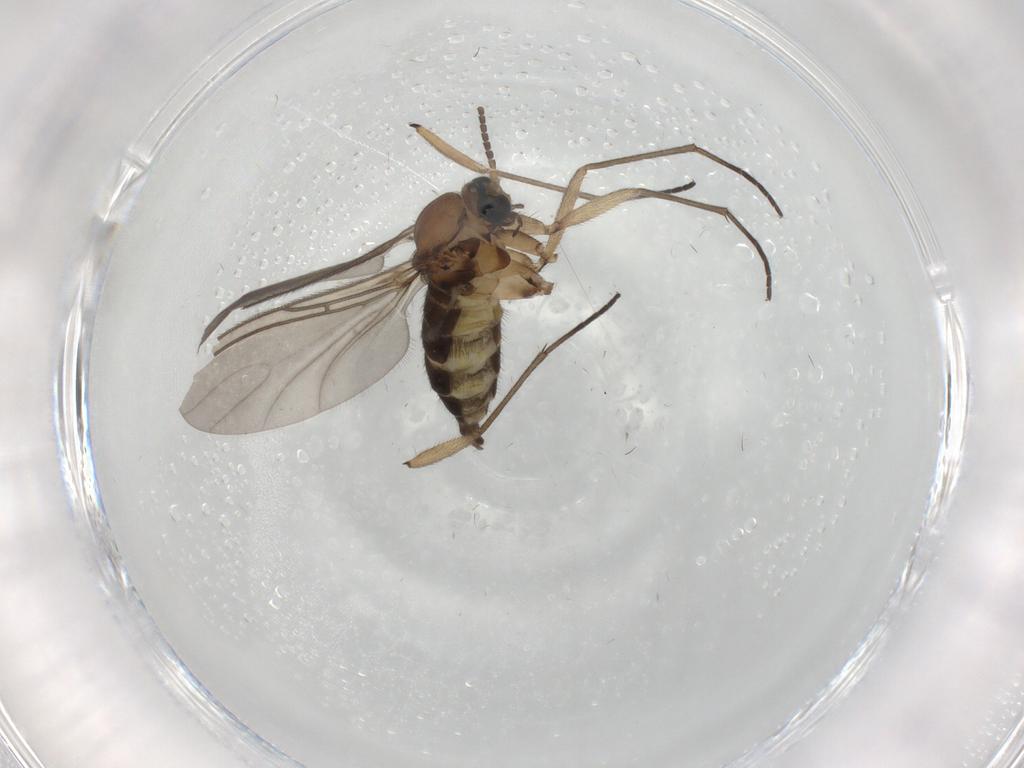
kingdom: Animalia
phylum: Arthropoda
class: Insecta
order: Diptera
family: Sciaridae
